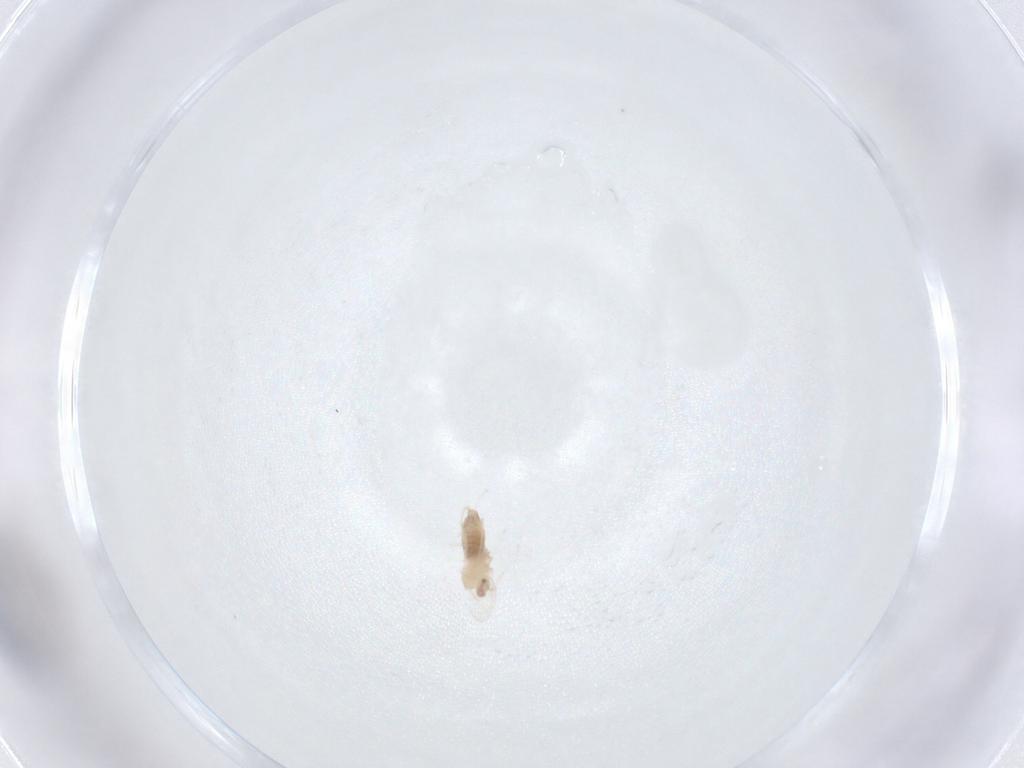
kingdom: Animalia
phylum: Arthropoda
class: Insecta
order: Diptera
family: Cecidomyiidae
